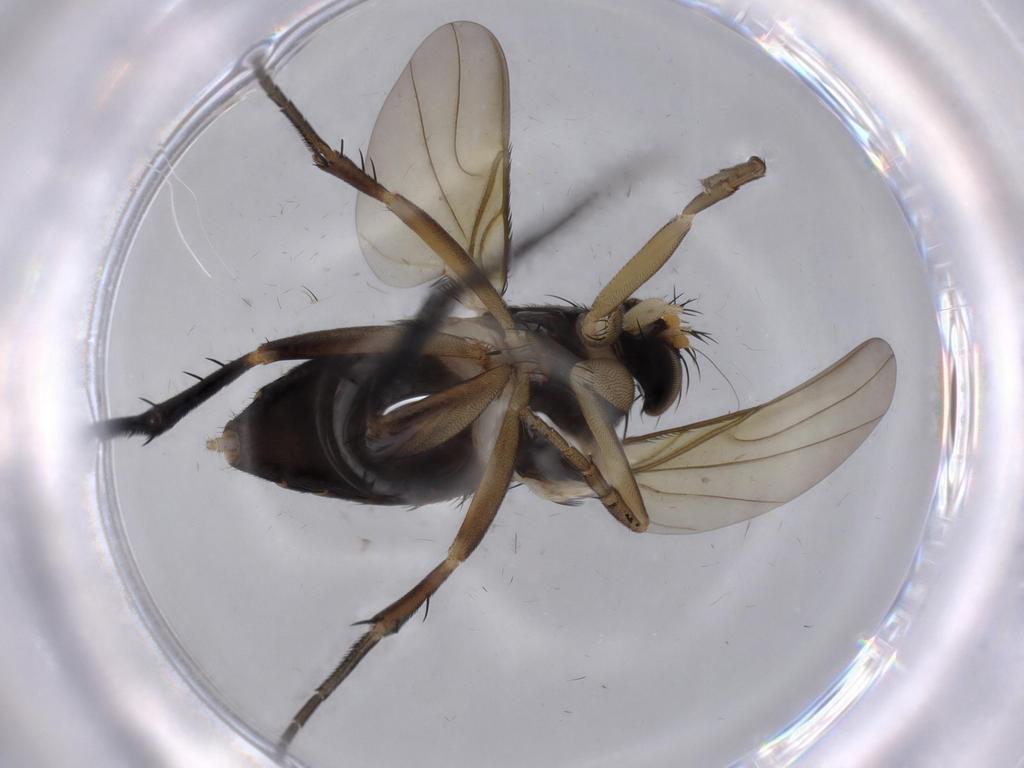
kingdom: Animalia
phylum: Arthropoda
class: Insecta
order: Diptera
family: Phoridae
